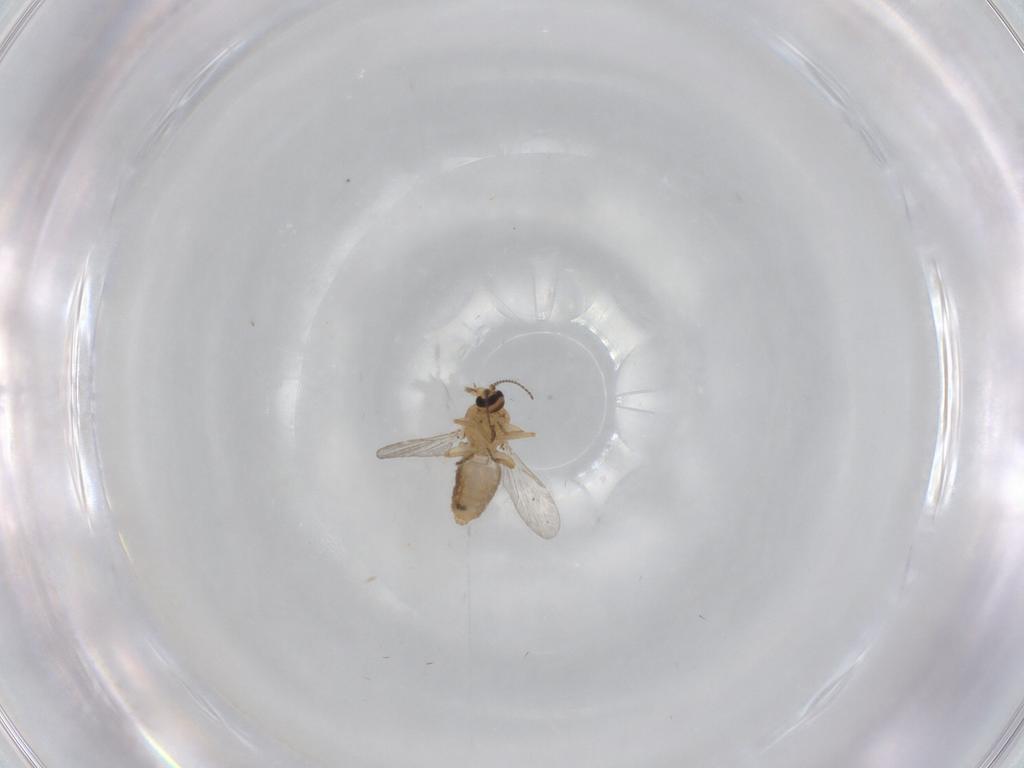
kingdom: Animalia
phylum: Arthropoda
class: Insecta
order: Diptera
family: Ceratopogonidae
